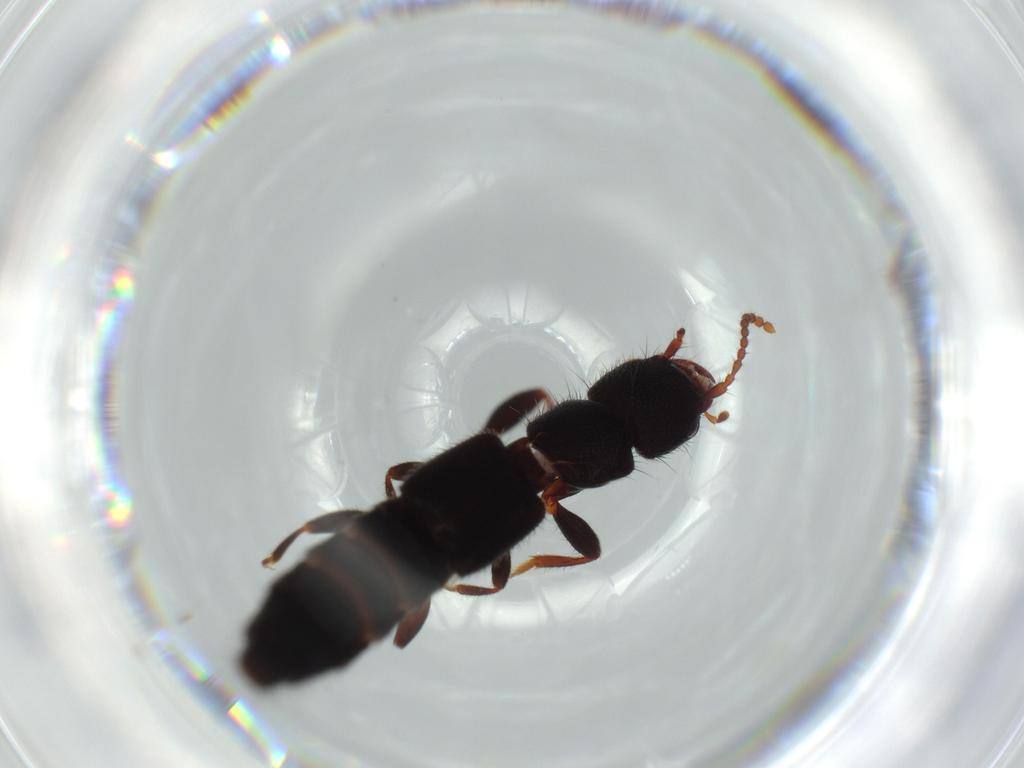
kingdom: Animalia
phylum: Arthropoda
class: Insecta
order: Coleoptera
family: Staphylinidae
